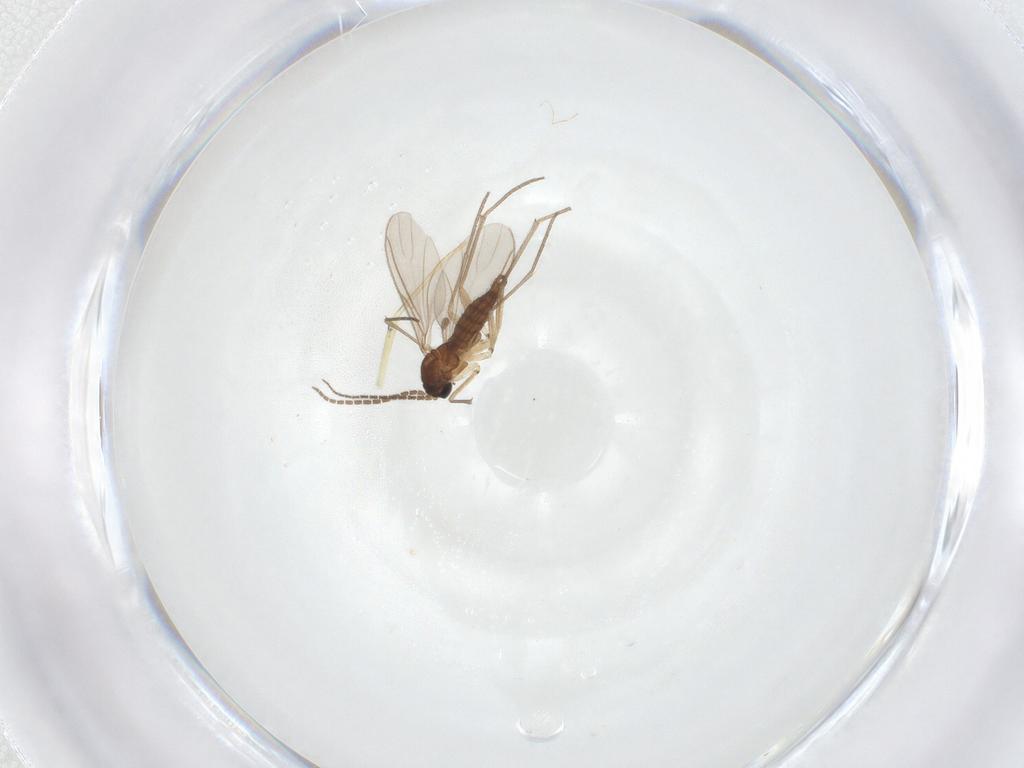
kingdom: Animalia
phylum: Arthropoda
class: Insecta
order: Diptera
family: Sciaridae
